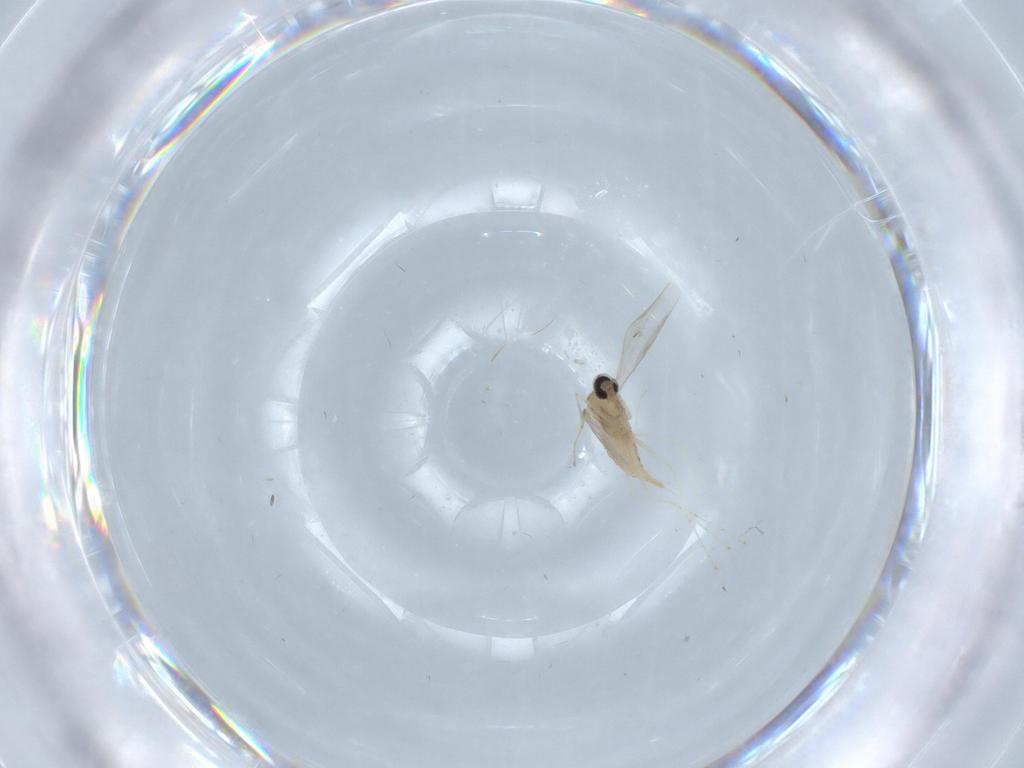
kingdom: Animalia
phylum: Arthropoda
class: Insecta
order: Diptera
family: Cecidomyiidae
